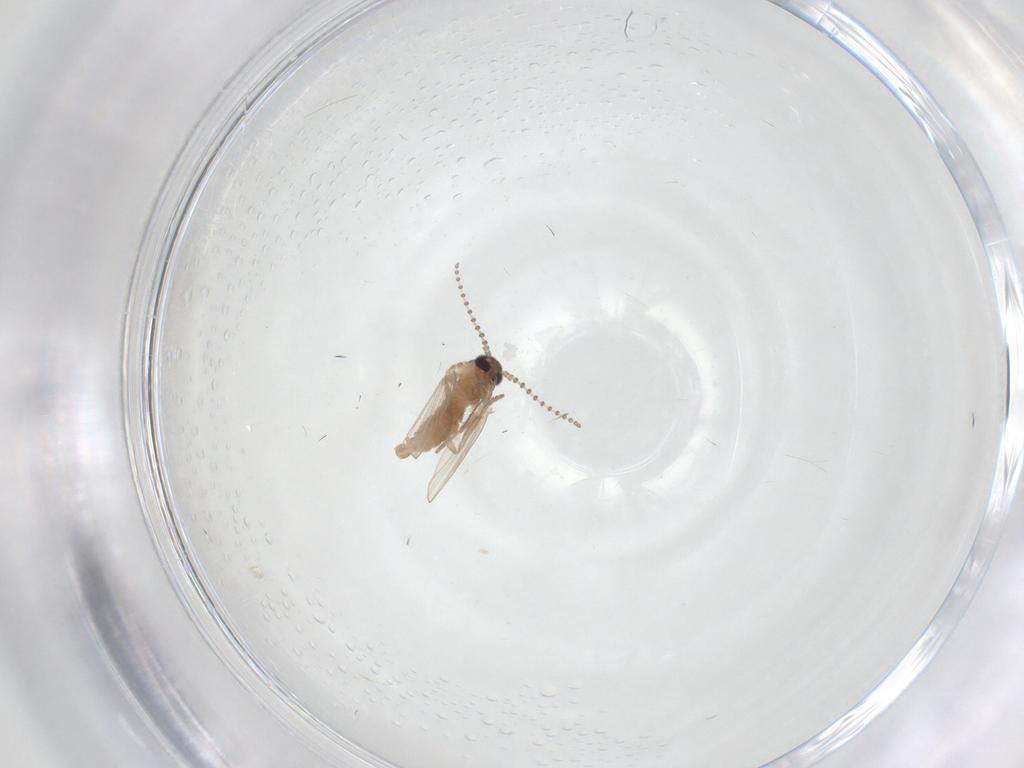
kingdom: Animalia
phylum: Arthropoda
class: Insecta
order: Diptera
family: Psychodidae
